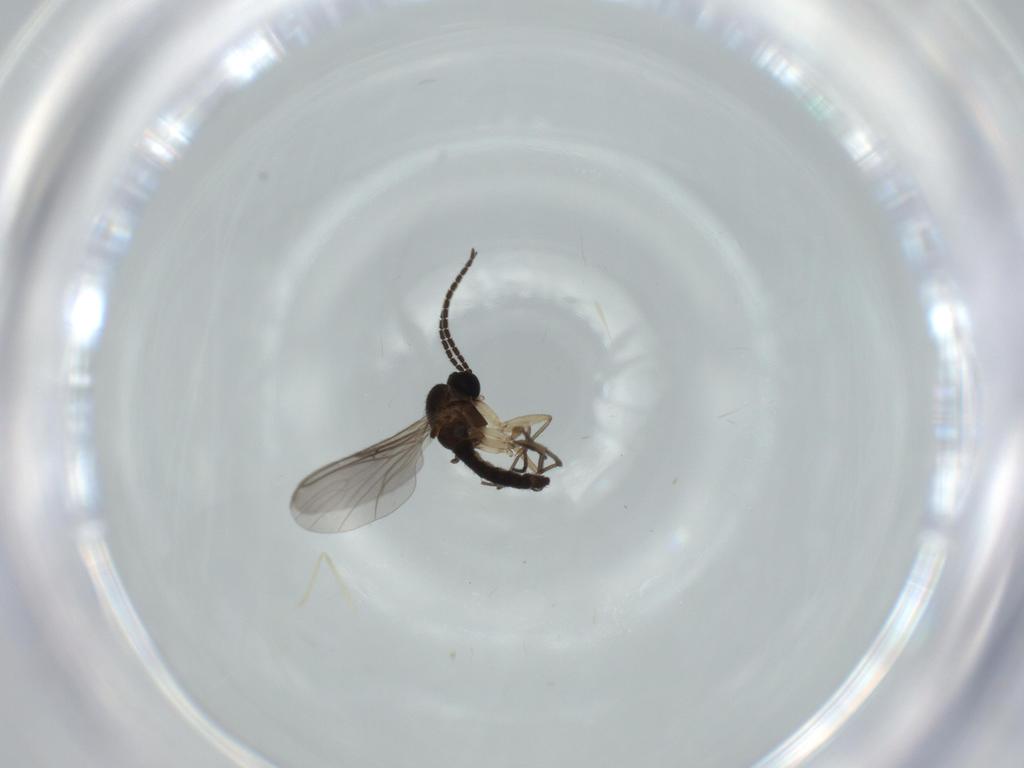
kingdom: Animalia
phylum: Arthropoda
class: Insecta
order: Diptera
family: Sciaridae
